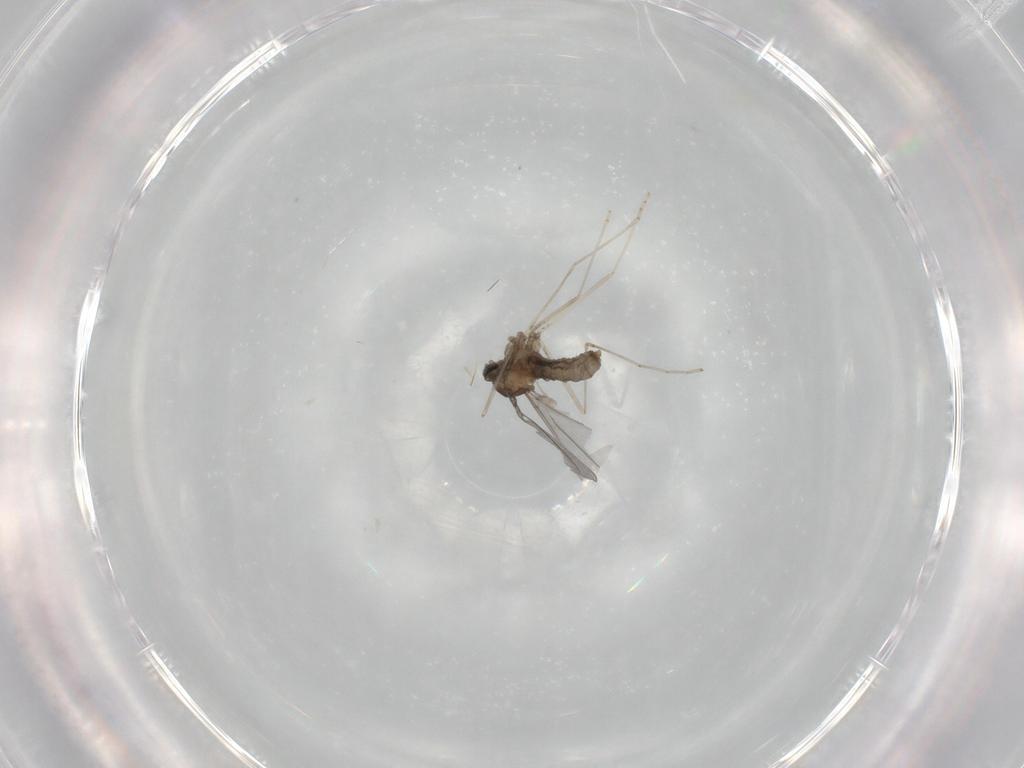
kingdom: Animalia
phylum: Arthropoda
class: Insecta
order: Diptera
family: Cecidomyiidae
